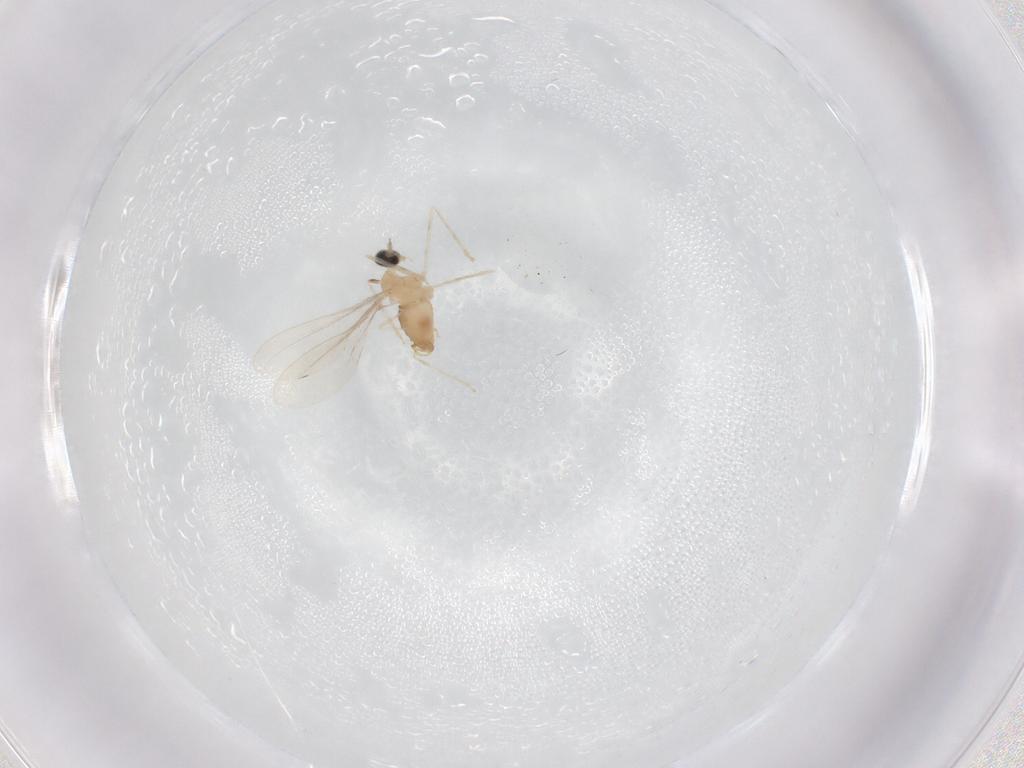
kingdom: Animalia
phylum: Arthropoda
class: Insecta
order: Diptera
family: Cecidomyiidae
